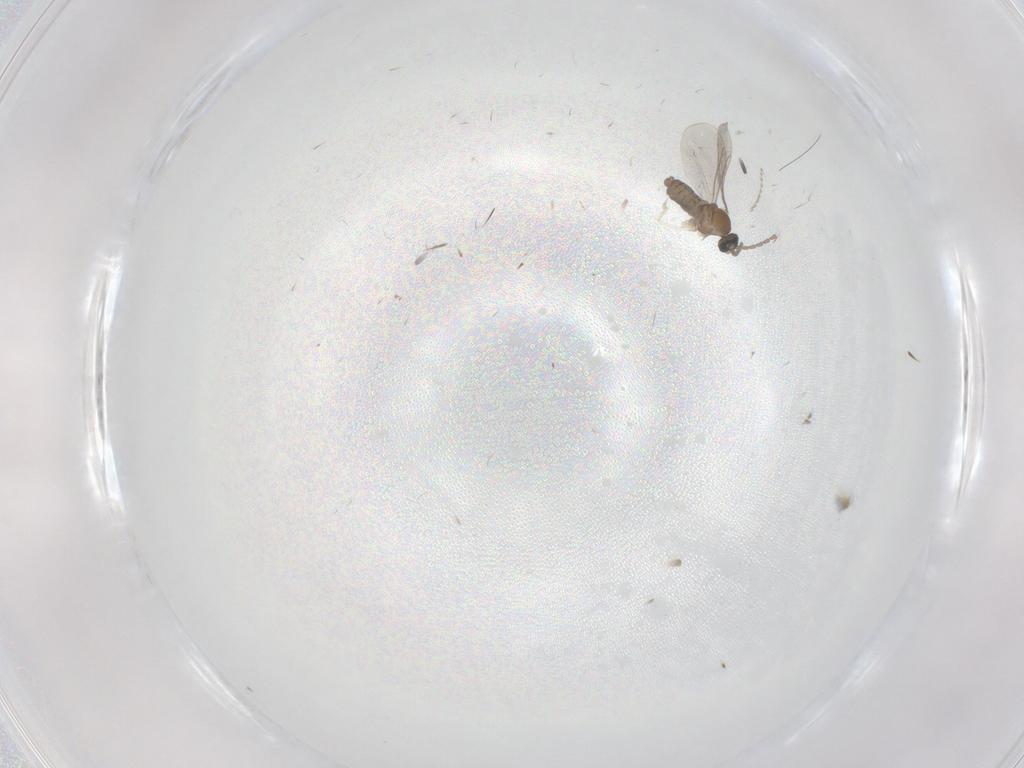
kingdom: Animalia
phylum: Arthropoda
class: Insecta
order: Diptera
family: Sciaridae
